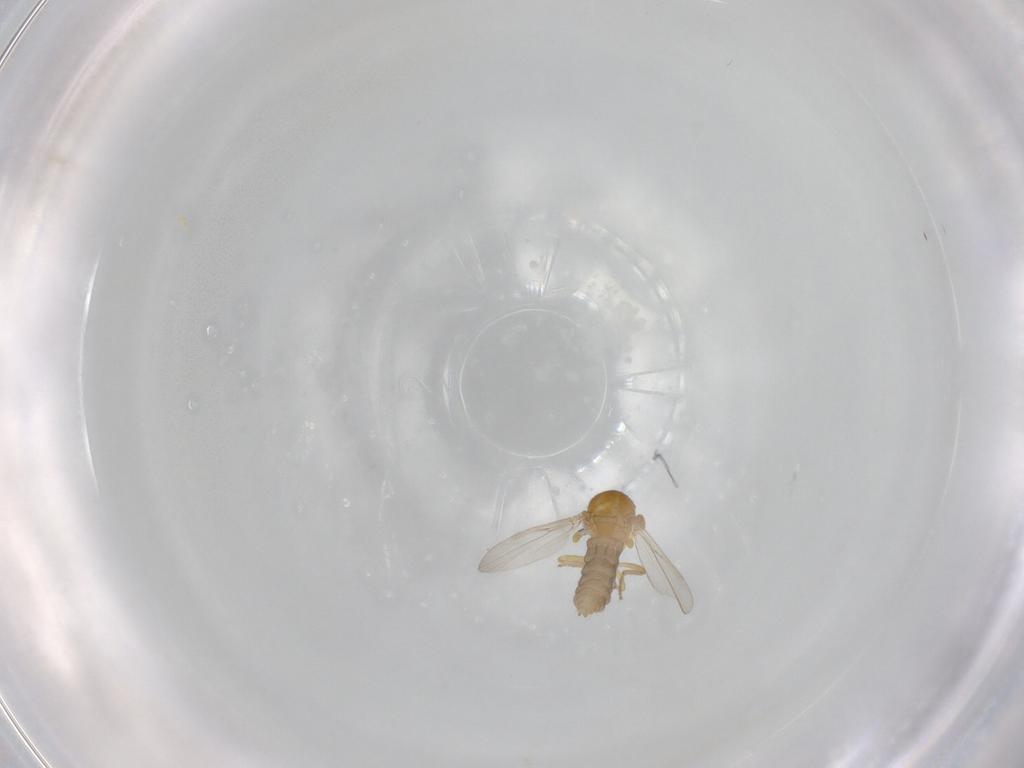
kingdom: Animalia
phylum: Arthropoda
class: Insecta
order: Diptera
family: Ceratopogonidae
